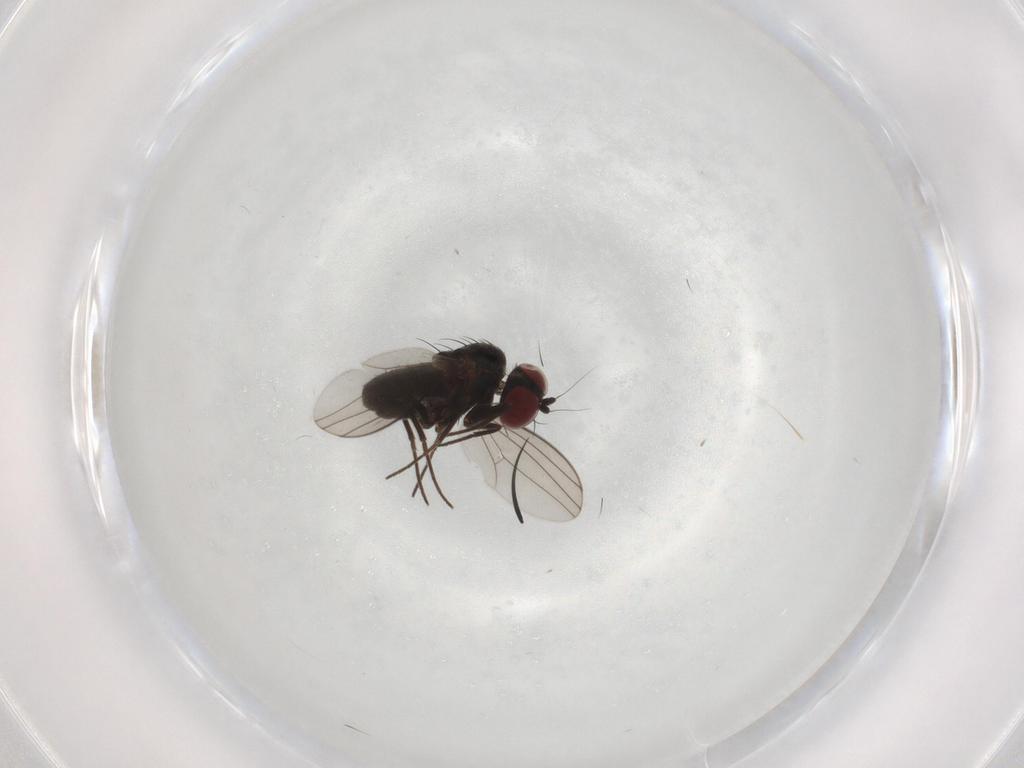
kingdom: Animalia
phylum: Arthropoda
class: Insecta
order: Diptera
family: Dolichopodidae
